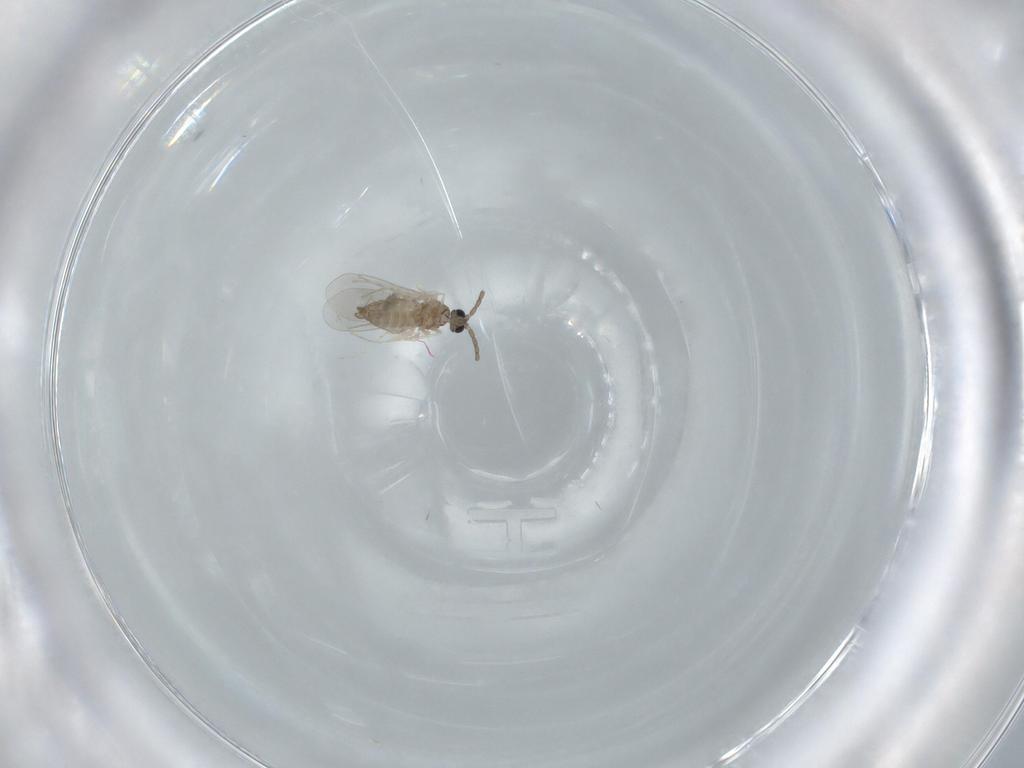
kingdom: Animalia
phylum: Arthropoda
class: Insecta
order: Diptera
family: Cecidomyiidae
